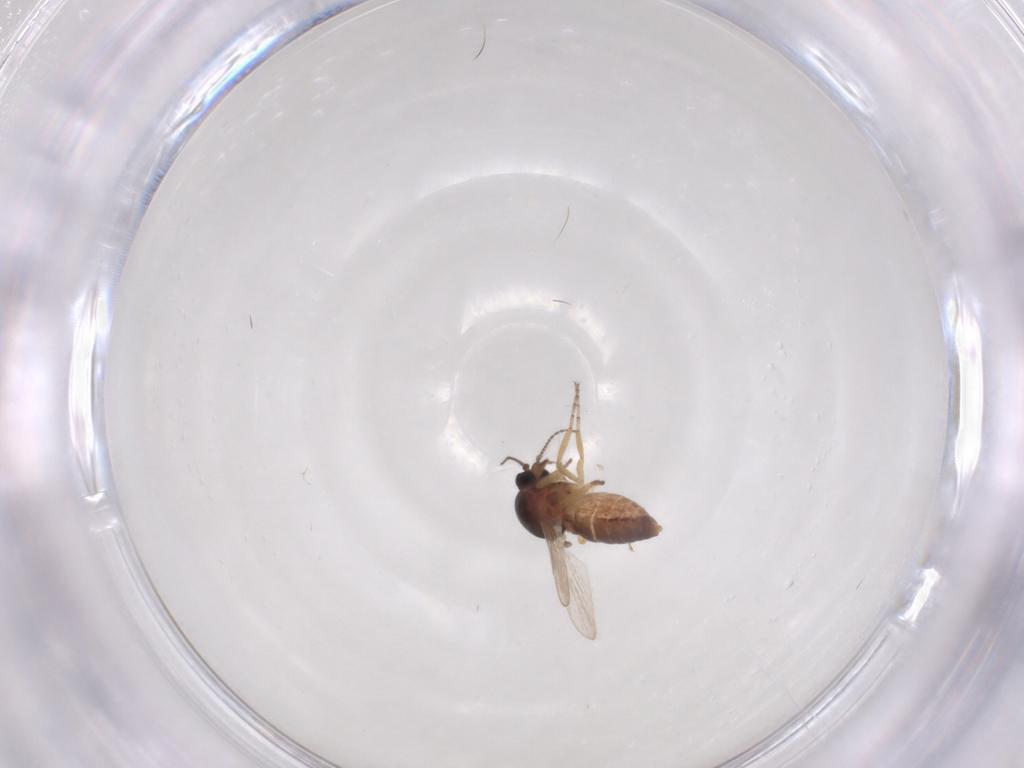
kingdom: Animalia
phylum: Arthropoda
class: Insecta
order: Diptera
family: Ceratopogonidae
